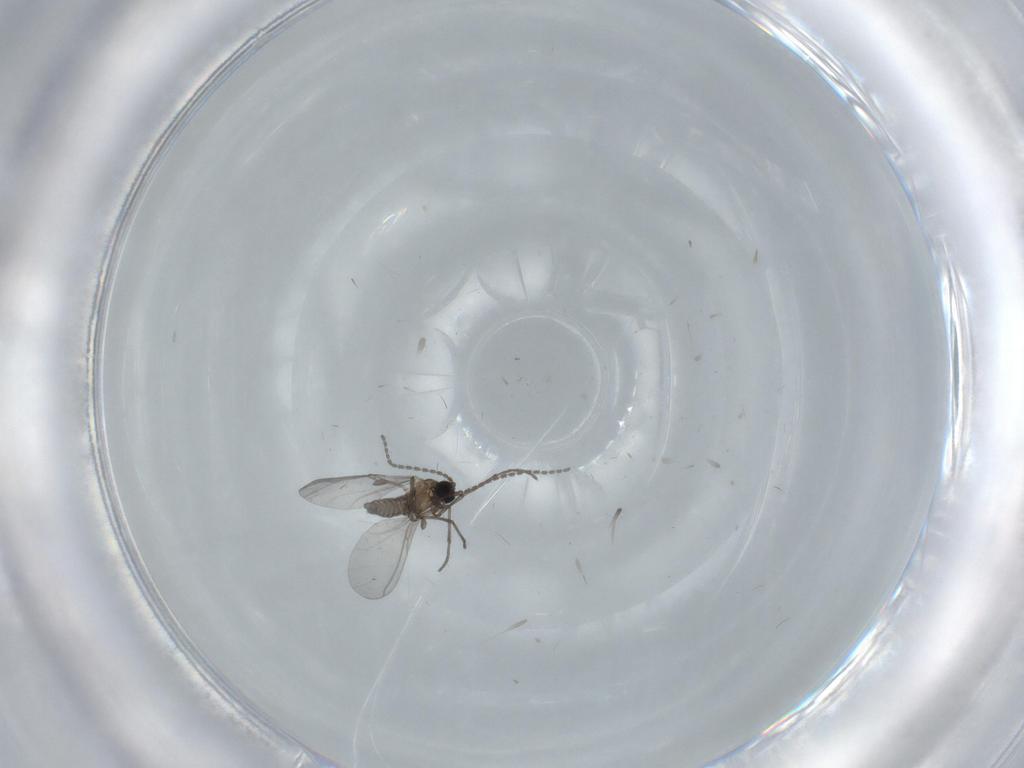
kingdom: Animalia
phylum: Arthropoda
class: Insecta
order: Diptera
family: Sciaridae
